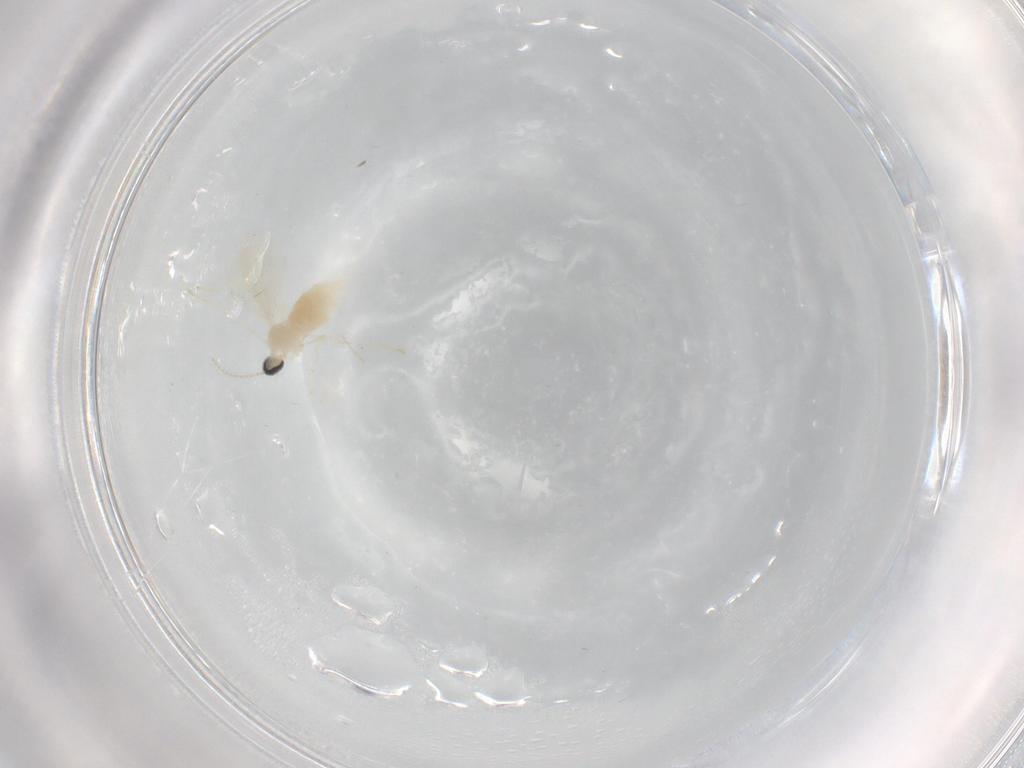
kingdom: Animalia
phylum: Arthropoda
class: Insecta
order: Diptera
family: Cecidomyiidae
